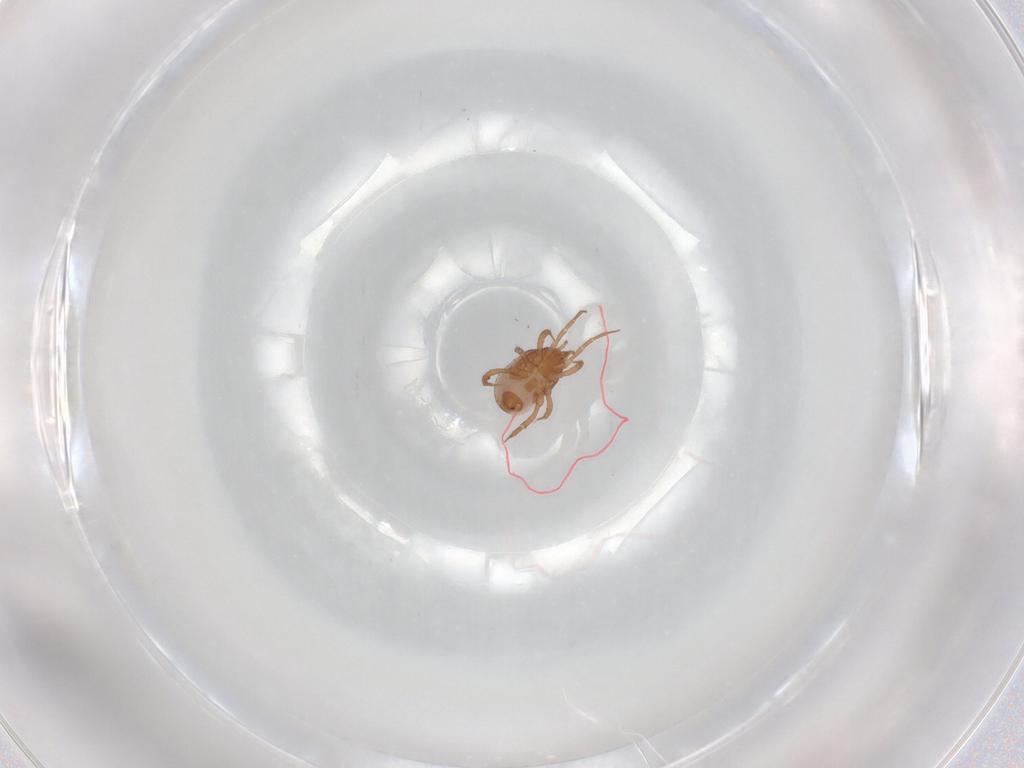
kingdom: Animalia
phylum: Arthropoda
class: Arachnida
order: Mesostigmata
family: Blattisociidae
